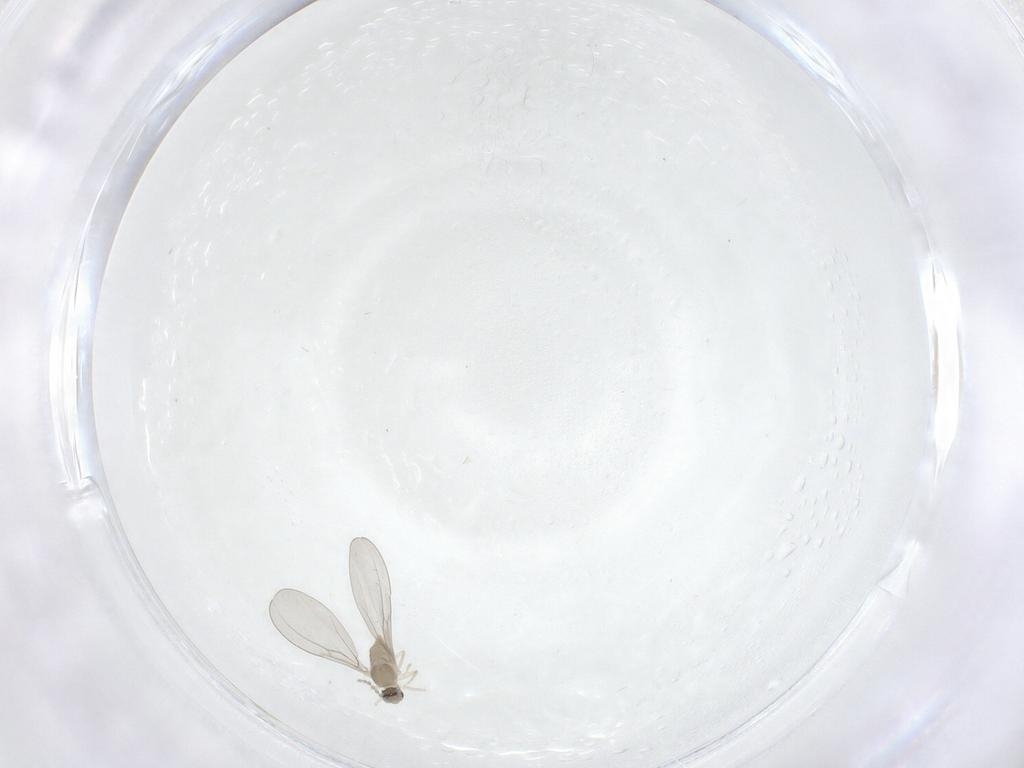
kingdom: Animalia
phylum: Arthropoda
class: Insecta
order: Diptera
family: Cecidomyiidae
